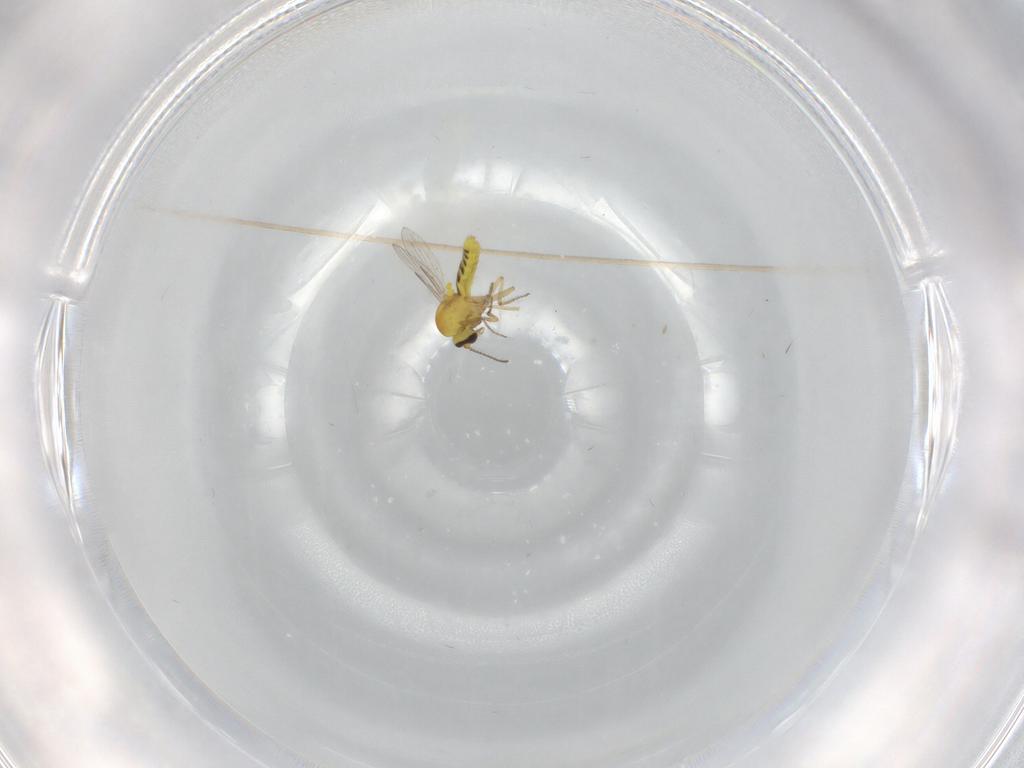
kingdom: Animalia
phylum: Arthropoda
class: Insecta
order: Diptera
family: Ceratopogonidae
